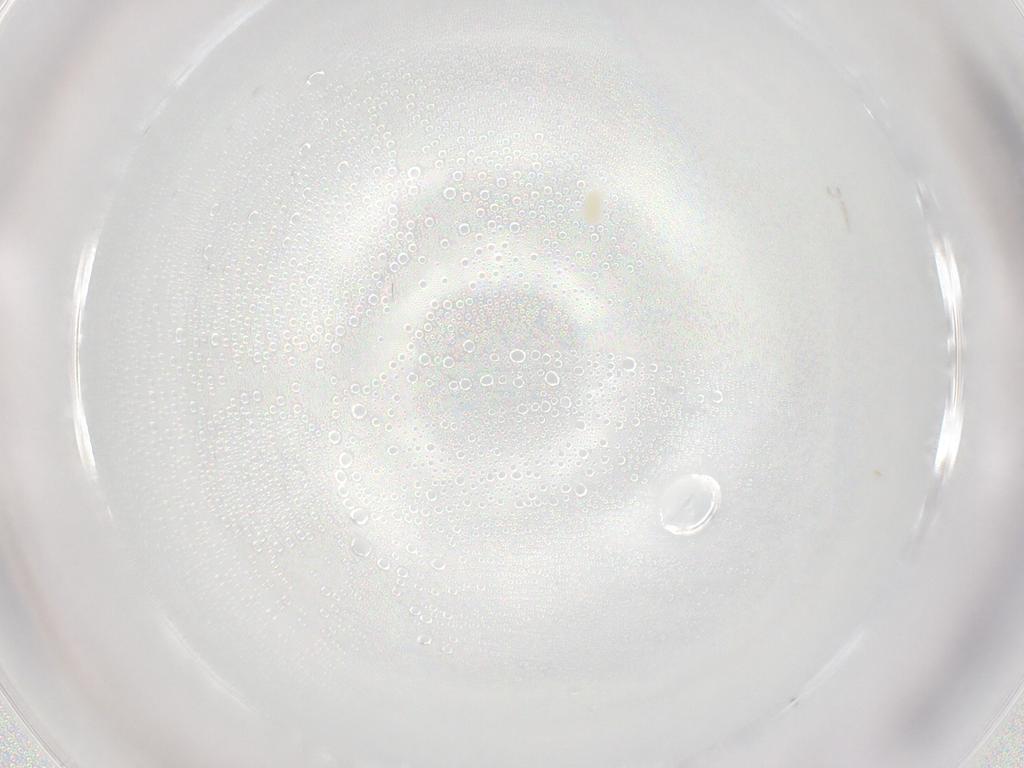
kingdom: Animalia
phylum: Arthropoda
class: Arachnida
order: Trombidiformes
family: Eupodidae
